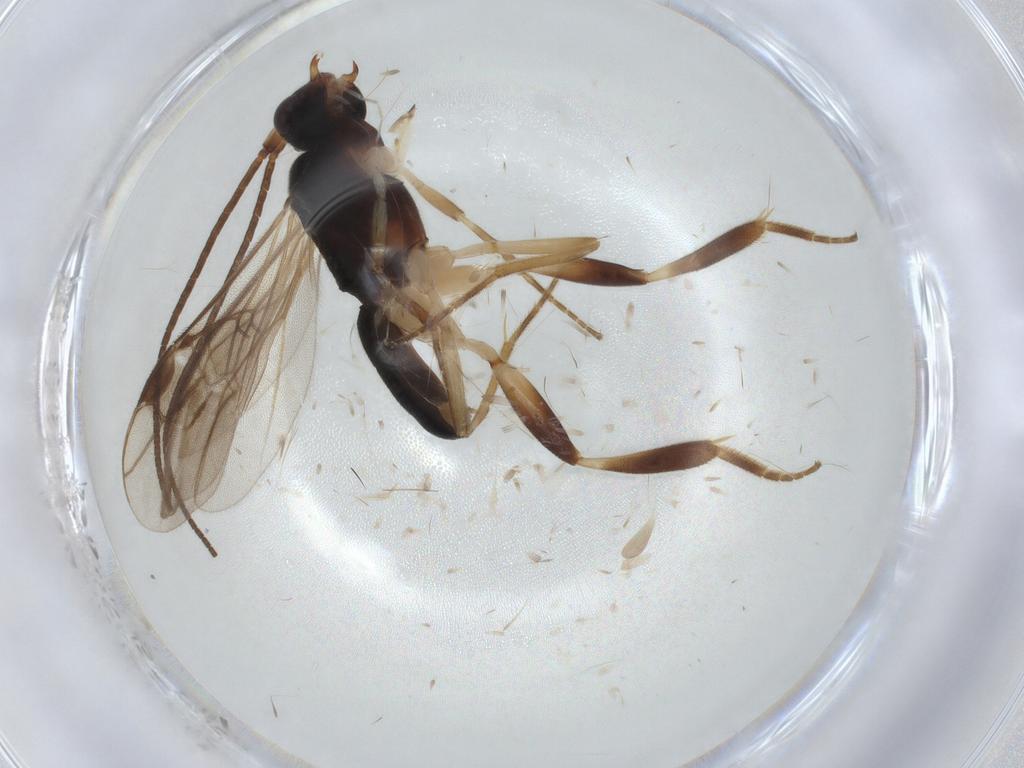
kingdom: Animalia
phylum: Arthropoda
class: Insecta
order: Hymenoptera
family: Braconidae
